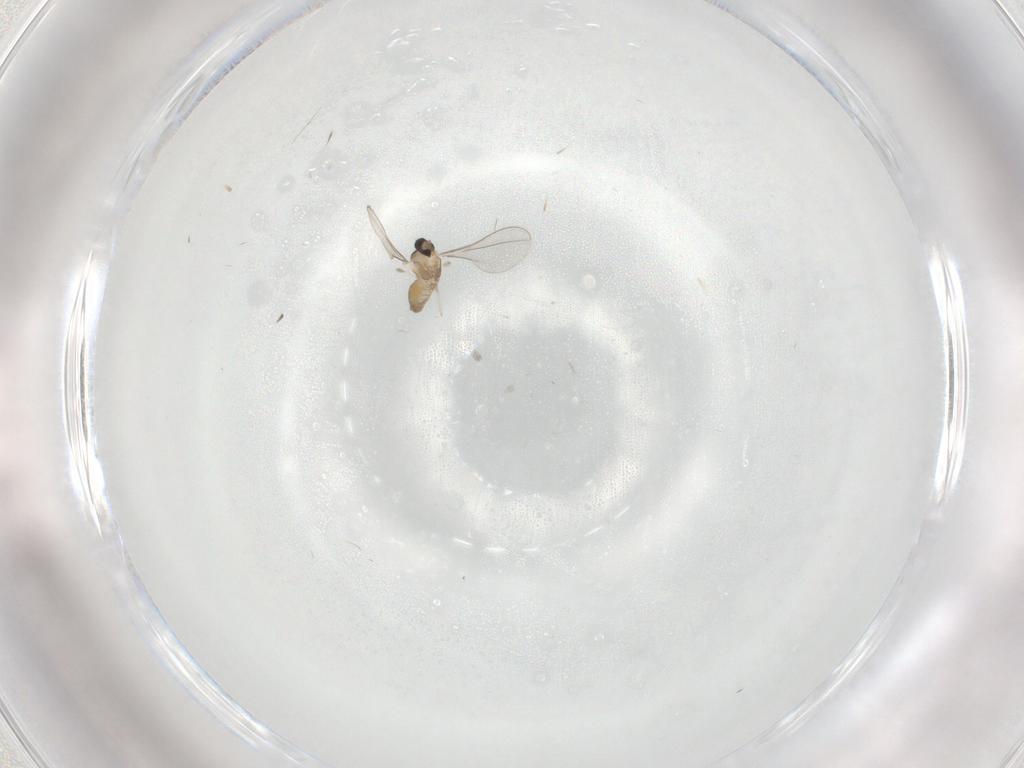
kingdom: Animalia
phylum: Arthropoda
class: Insecta
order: Diptera
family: Cecidomyiidae
